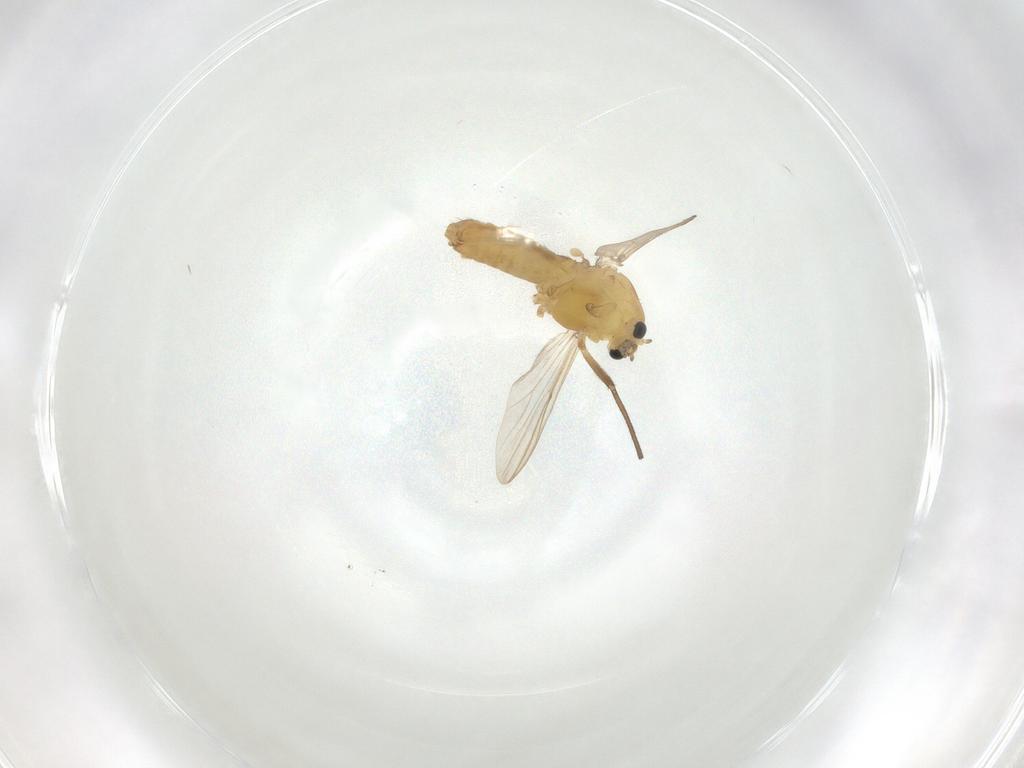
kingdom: Animalia
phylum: Arthropoda
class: Insecta
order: Diptera
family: Chironomidae
